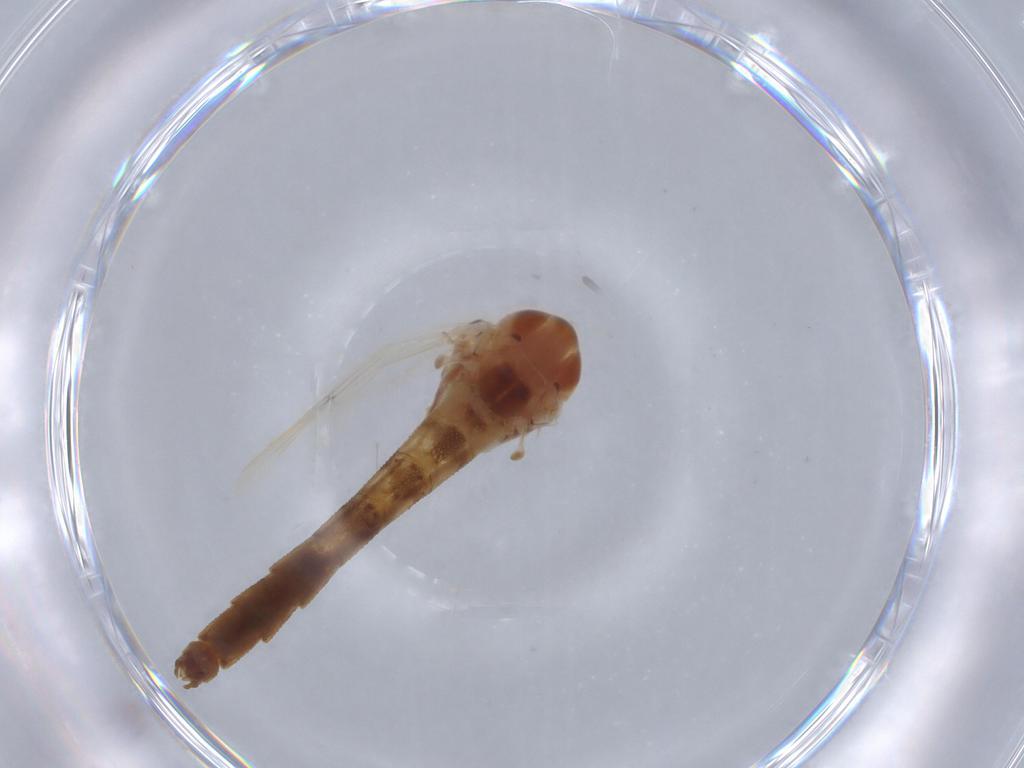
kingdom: Animalia
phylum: Arthropoda
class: Insecta
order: Diptera
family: Chironomidae
